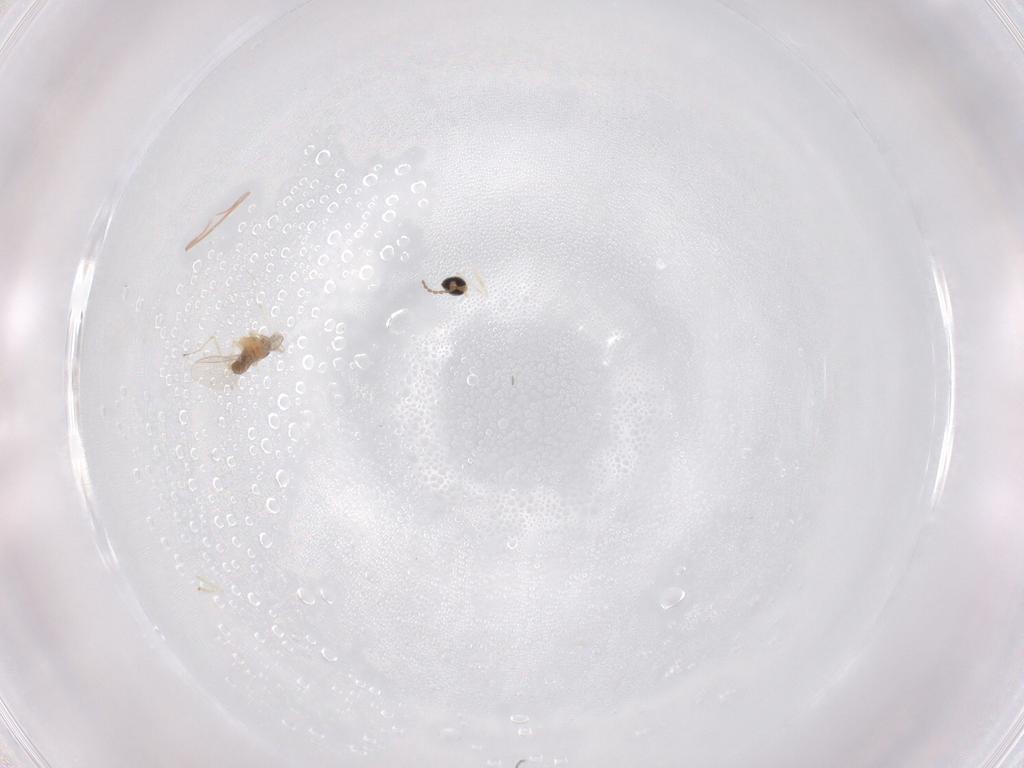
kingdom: Animalia
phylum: Arthropoda
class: Insecta
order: Diptera
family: Cecidomyiidae
